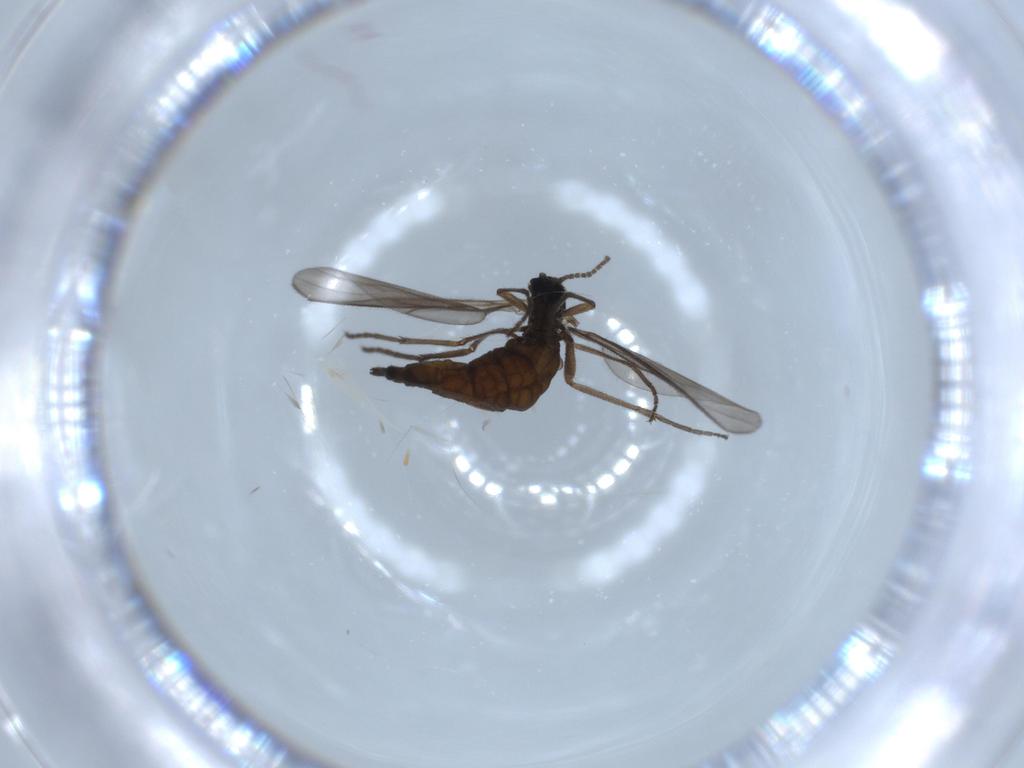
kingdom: Animalia
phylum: Arthropoda
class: Insecta
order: Diptera
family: Sciaridae
